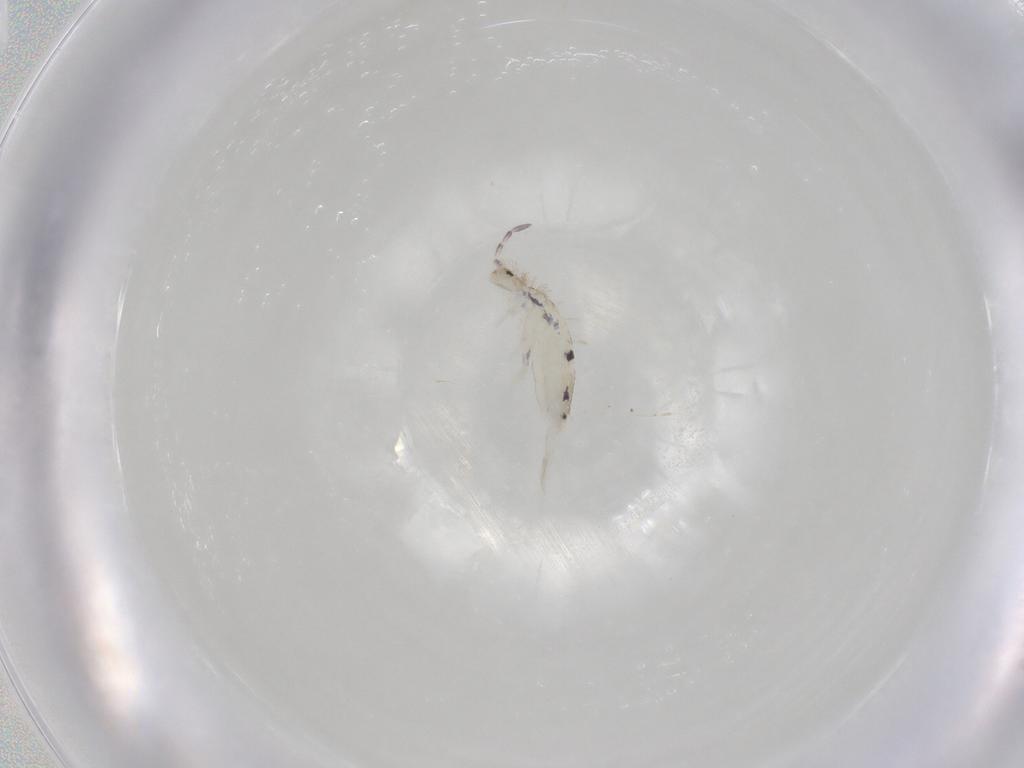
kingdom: Animalia
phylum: Arthropoda
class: Collembola
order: Entomobryomorpha
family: Entomobryidae
